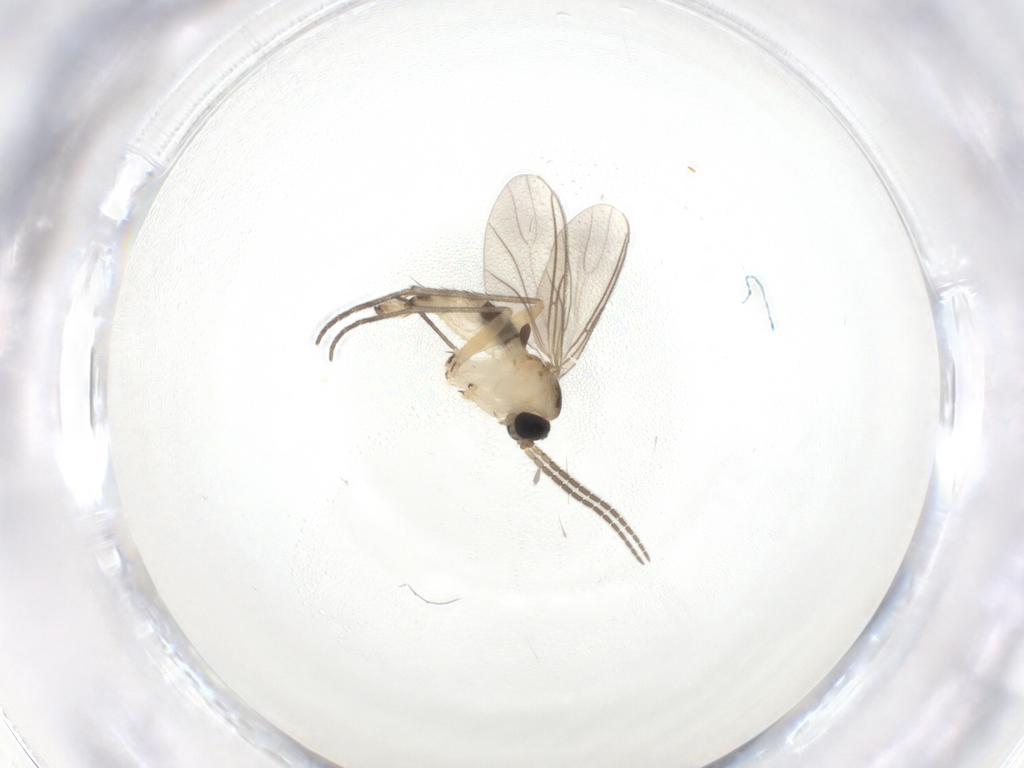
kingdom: Animalia
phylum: Arthropoda
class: Insecta
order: Diptera
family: Sciaridae
